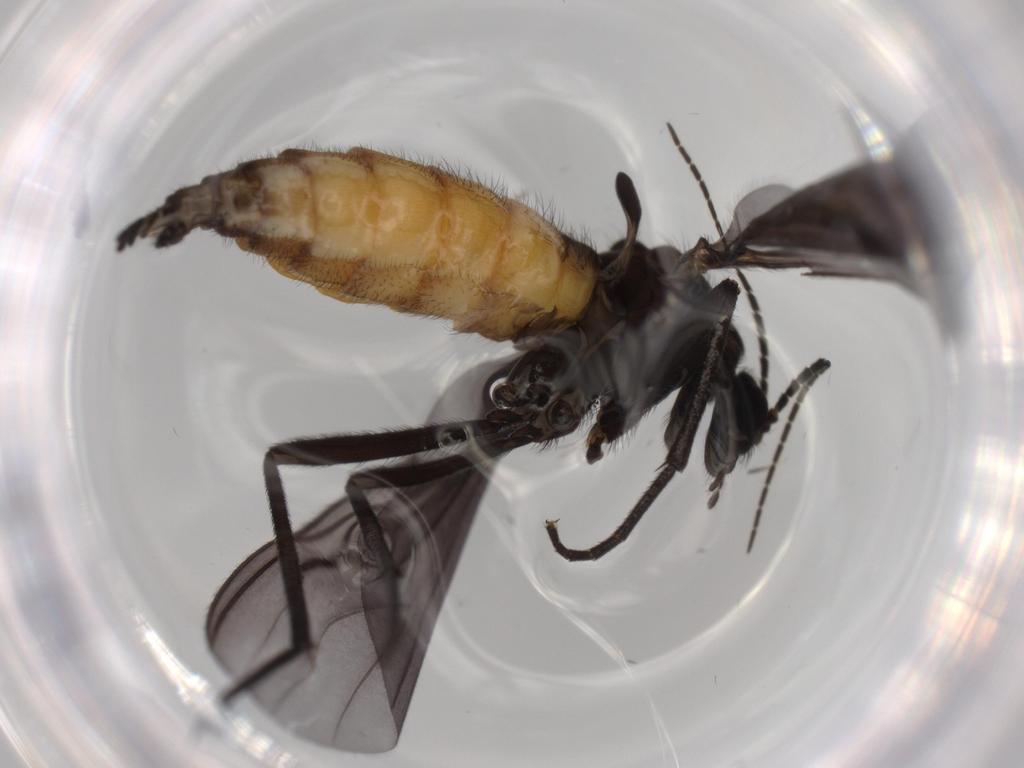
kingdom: Animalia
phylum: Arthropoda
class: Insecta
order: Diptera
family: Sciaridae
